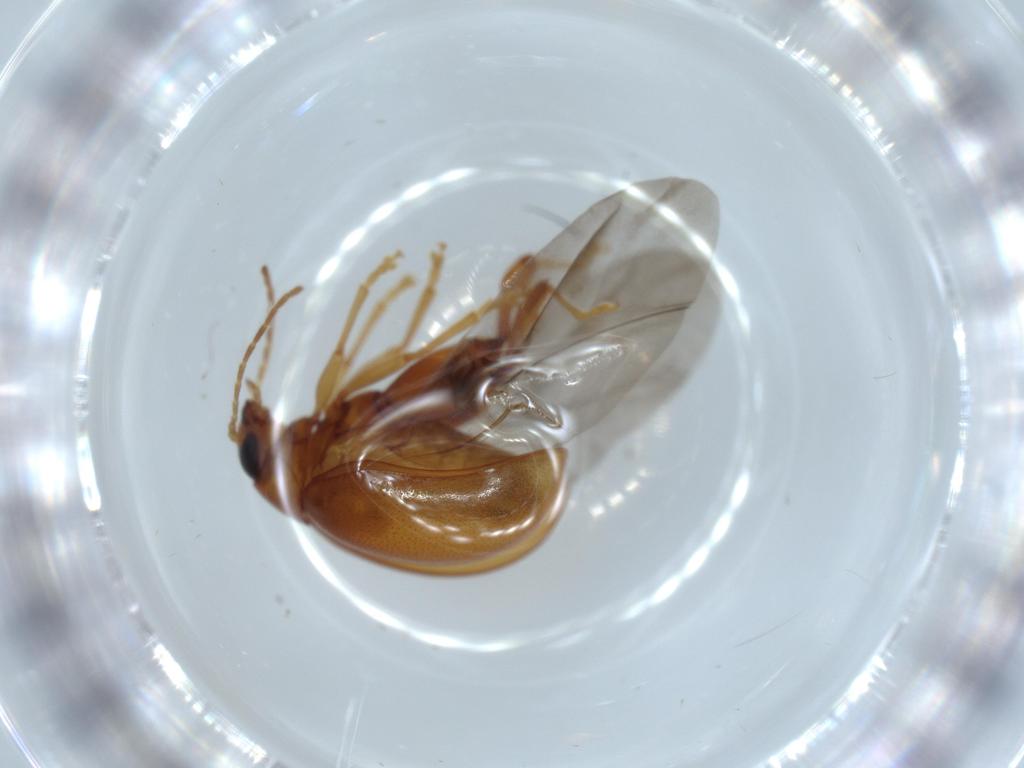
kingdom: Animalia
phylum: Arthropoda
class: Insecta
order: Coleoptera
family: Chrysomelidae
